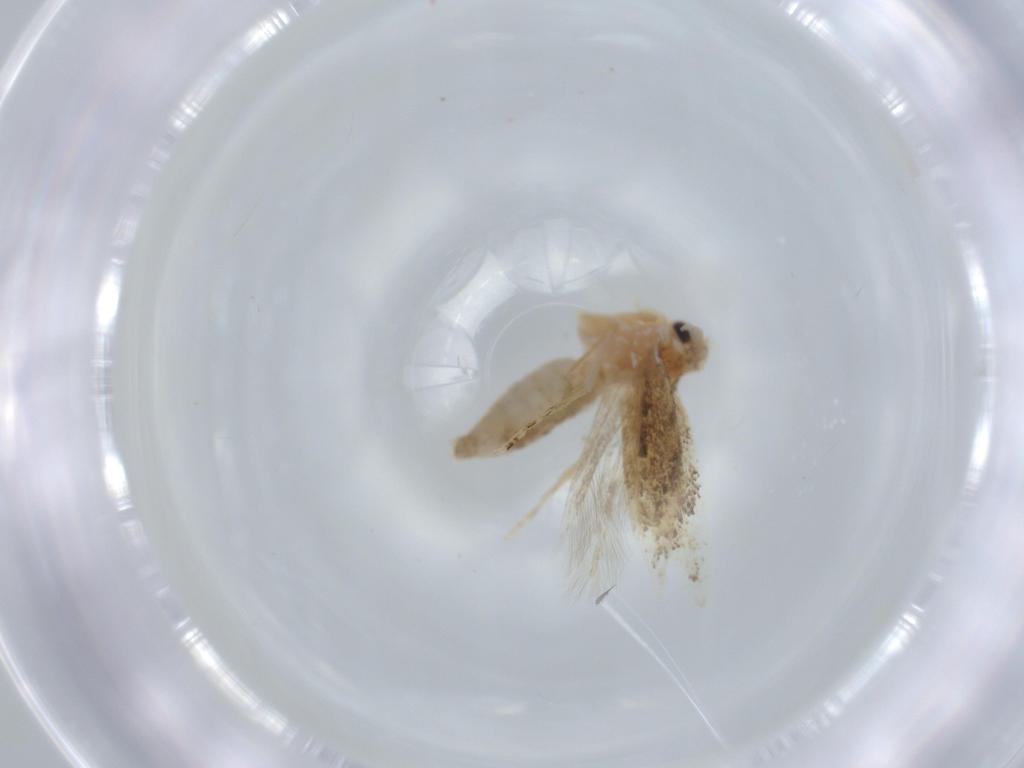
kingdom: Animalia
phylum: Arthropoda
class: Insecta
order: Lepidoptera
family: Bucculatricidae
